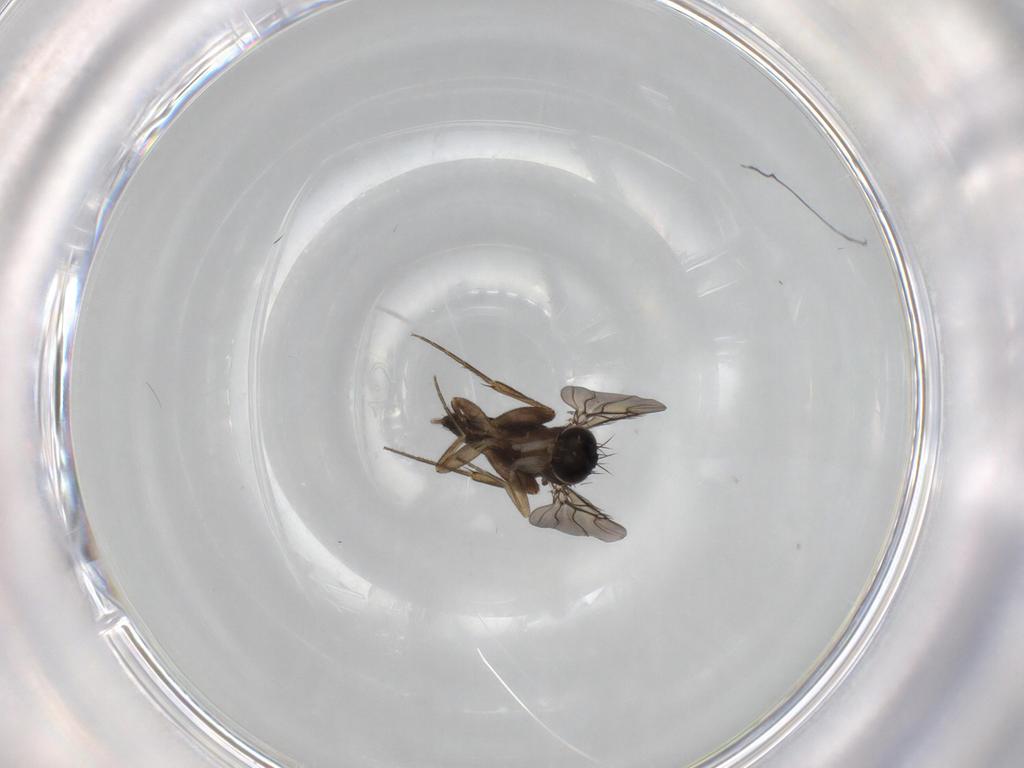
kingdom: Animalia
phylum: Arthropoda
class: Insecta
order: Diptera
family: Phoridae
